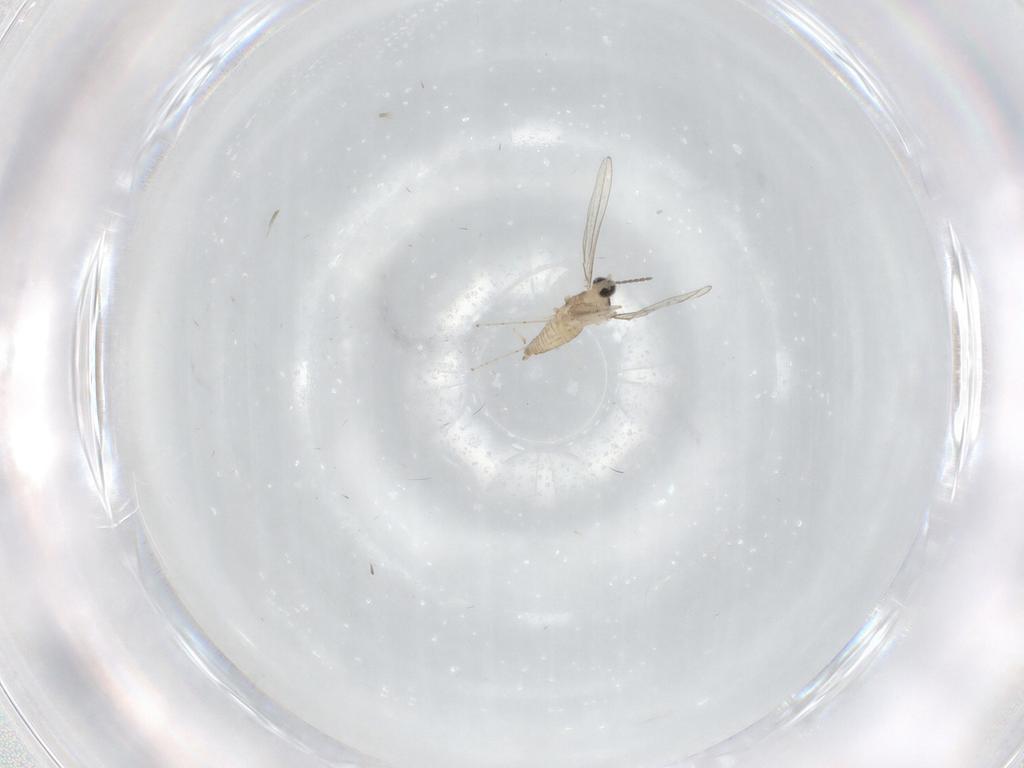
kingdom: Animalia
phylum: Arthropoda
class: Insecta
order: Diptera
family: Cecidomyiidae
